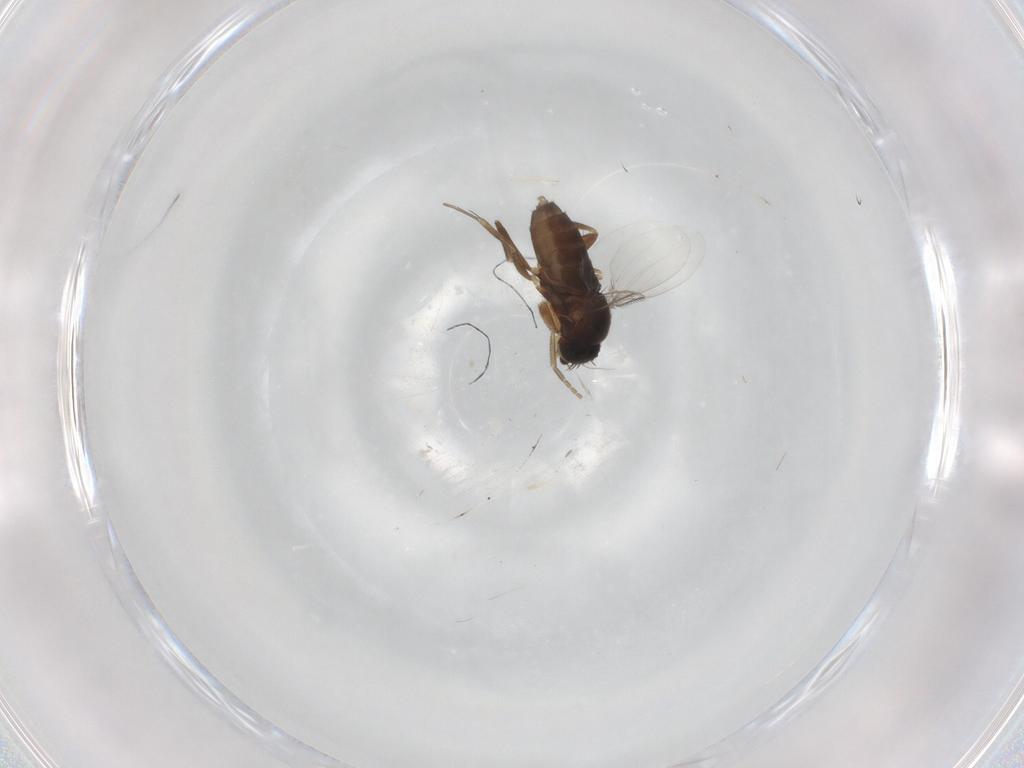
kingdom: Animalia
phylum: Arthropoda
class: Insecta
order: Diptera
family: Phoridae
